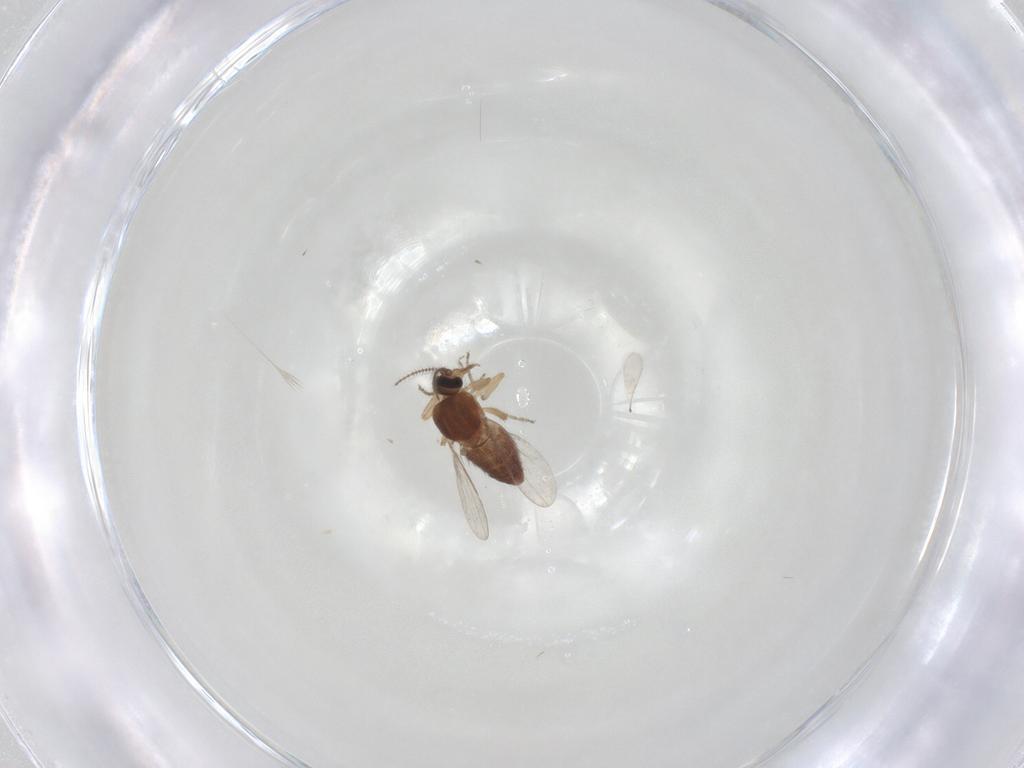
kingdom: Animalia
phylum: Arthropoda
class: Insecta
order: Diptera
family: Ceratopogonidae
